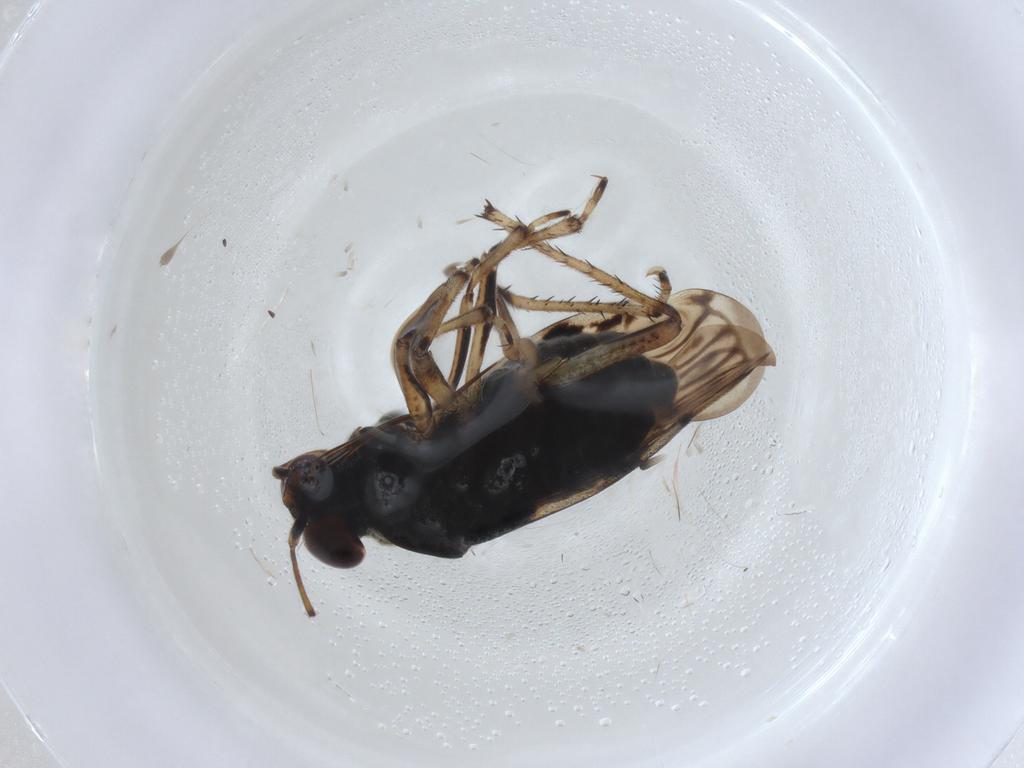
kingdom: Animalia
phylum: Arthropoda
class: Insecta
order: Hemiptera
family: Saldidae
